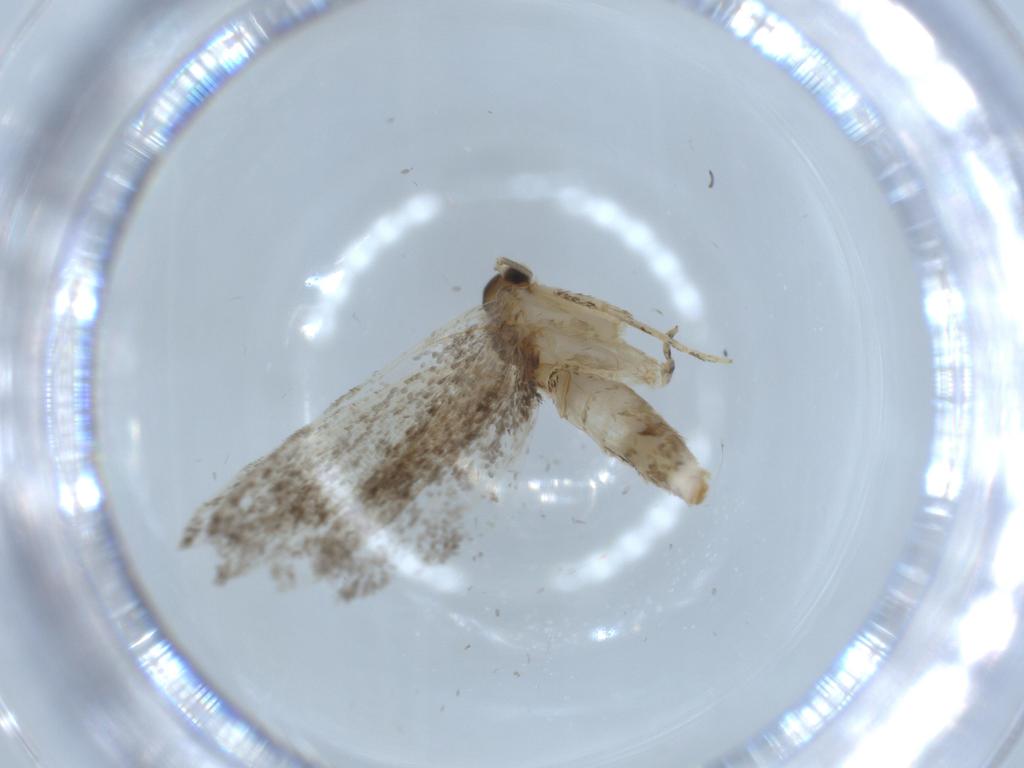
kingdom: Animalia
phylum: Arthropoda
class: Insecta
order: Lepidoptera
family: Tineidae
